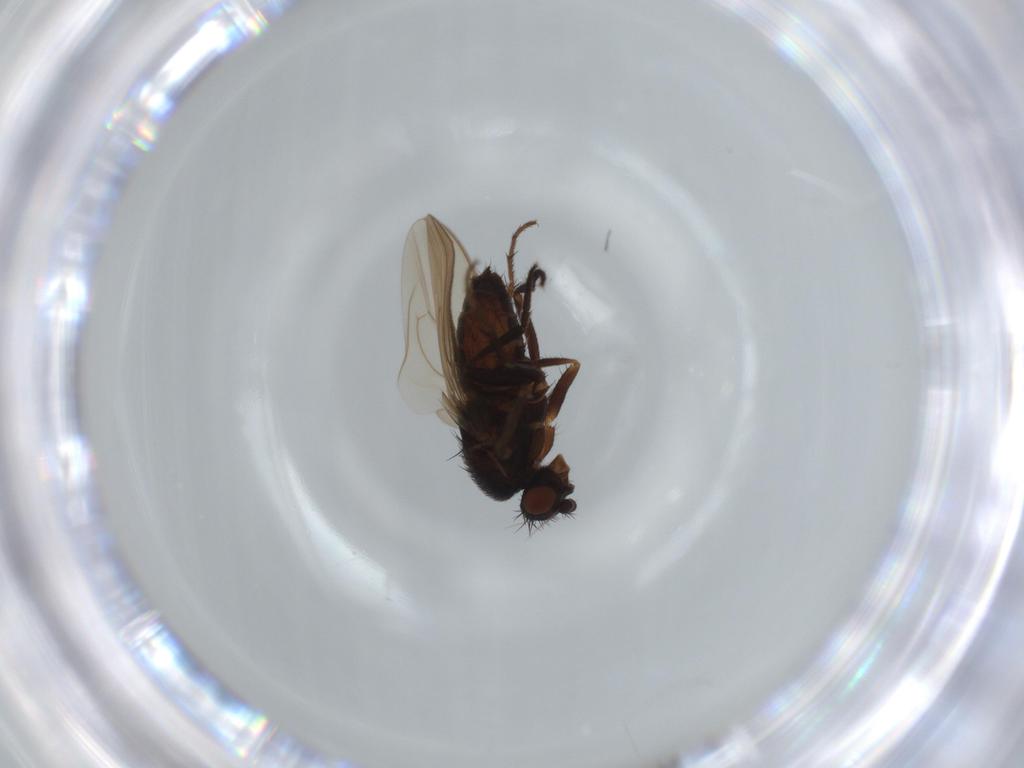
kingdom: Animalia
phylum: Arthropoda
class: Insecta
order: Diptera
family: Sphaeroceridae
